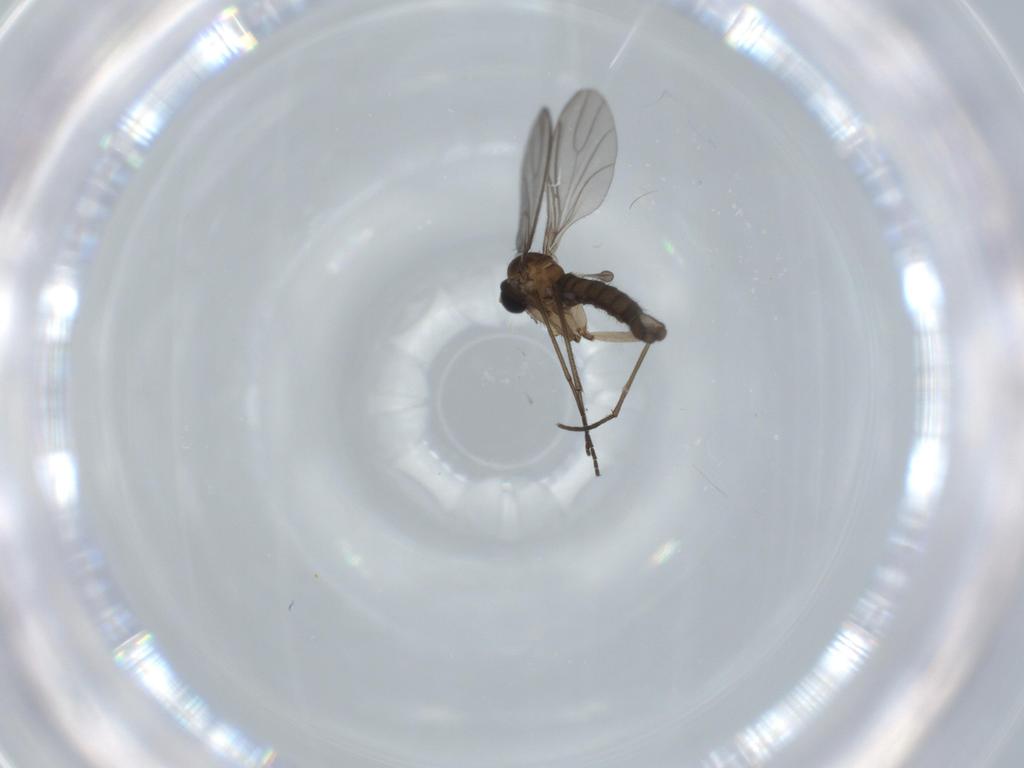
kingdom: Animalia
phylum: Arthropoda
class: Insecta
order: Diptera
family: Sciaridae
